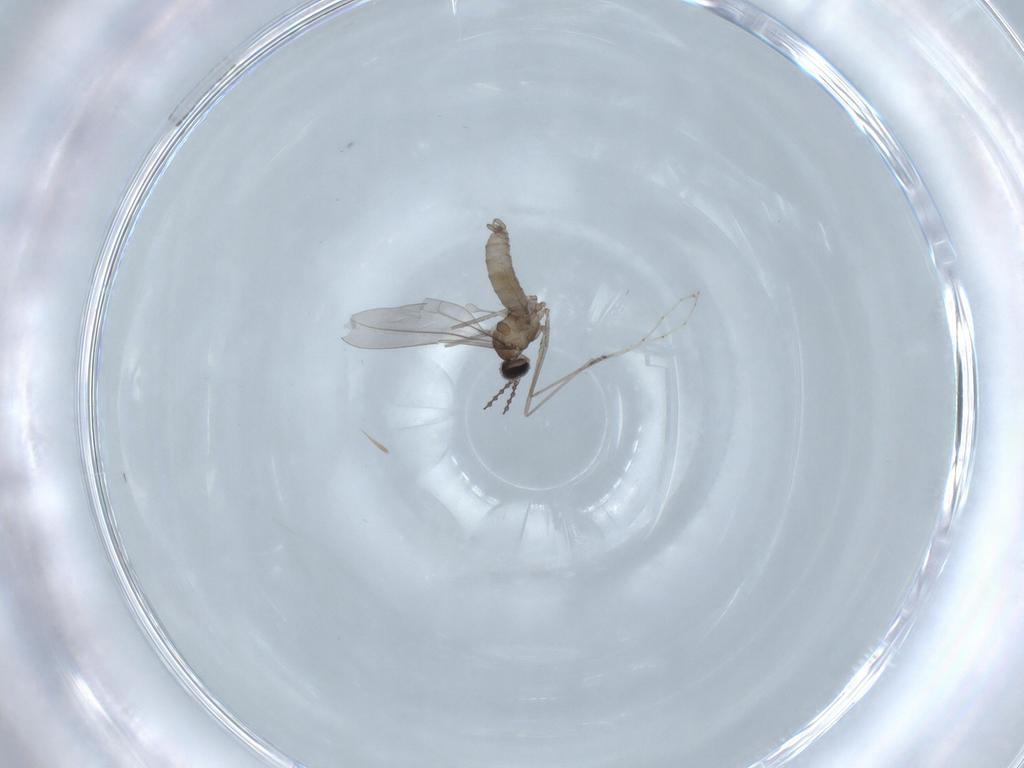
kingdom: Animalia
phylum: Arthropoda
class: Insecta
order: Diptera
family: Sciaridae
